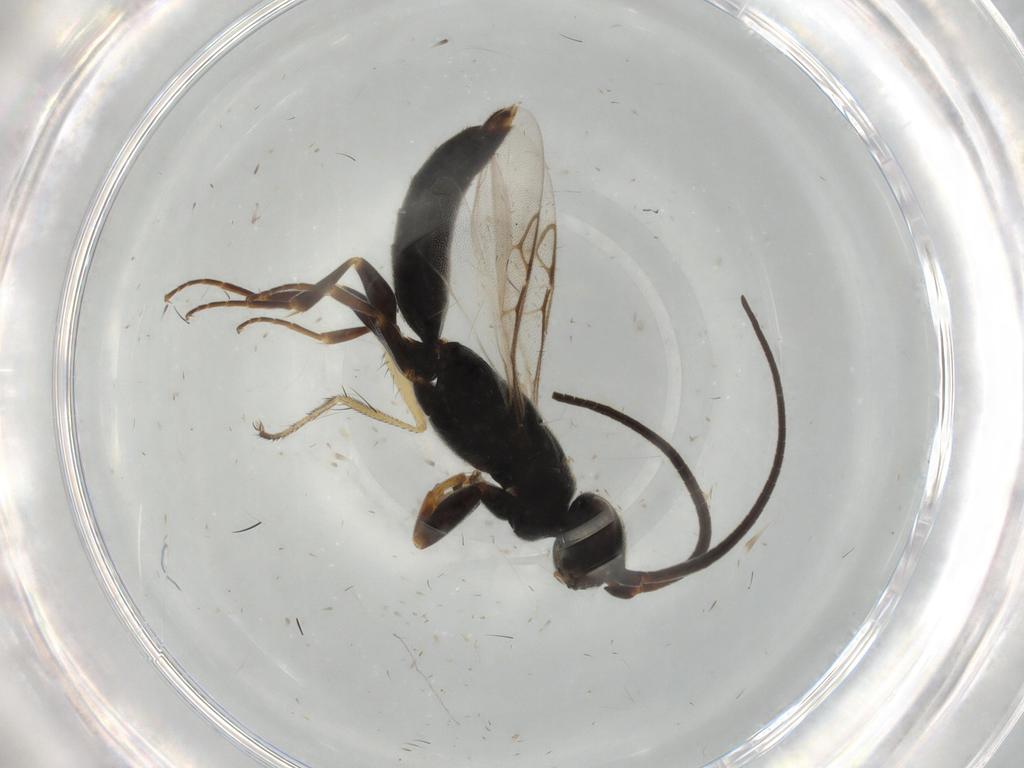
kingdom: Animalia
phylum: Arthropoda
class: Insecta
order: Hymenoptera
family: Sclerogibbidae
